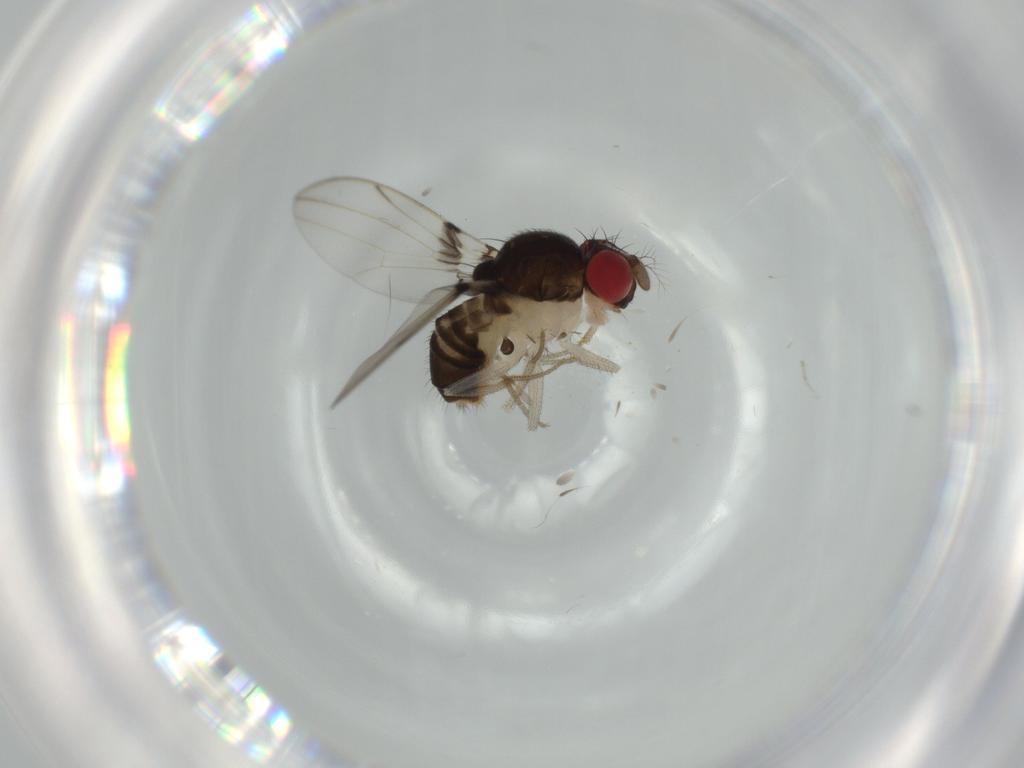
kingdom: Animalia
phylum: Arthropoda
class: Insecta
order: Diptera
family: Drosophilidae
